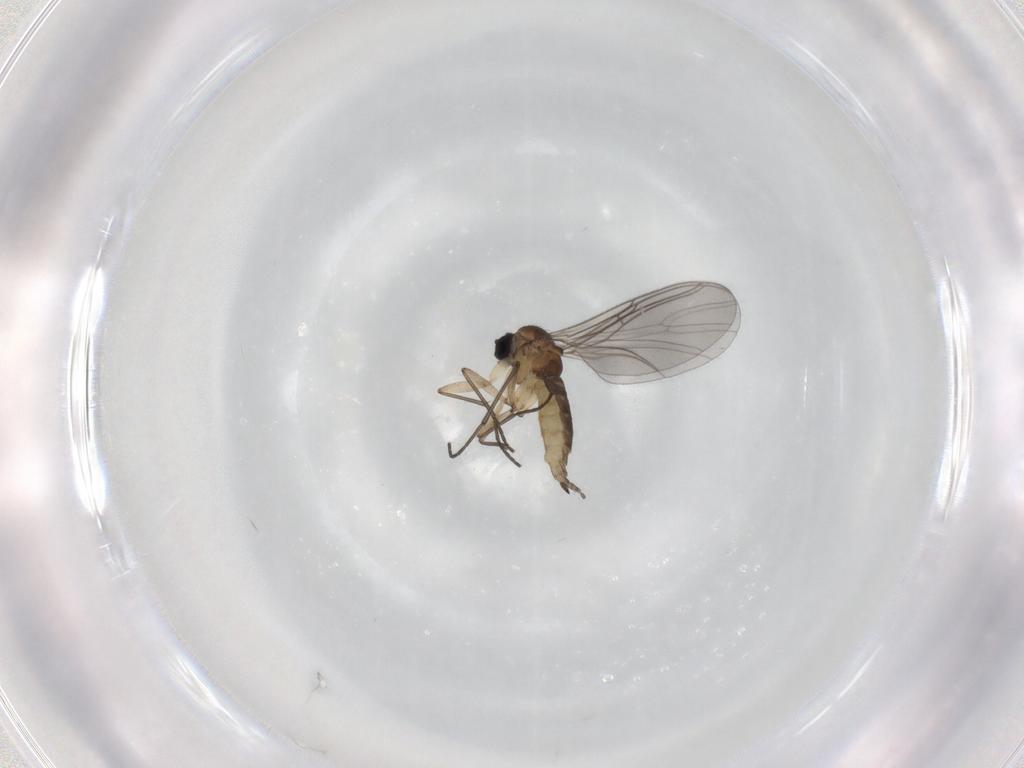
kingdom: Animalia
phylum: Arthropoda
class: Insecta
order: Diptera
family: Sciaridae
